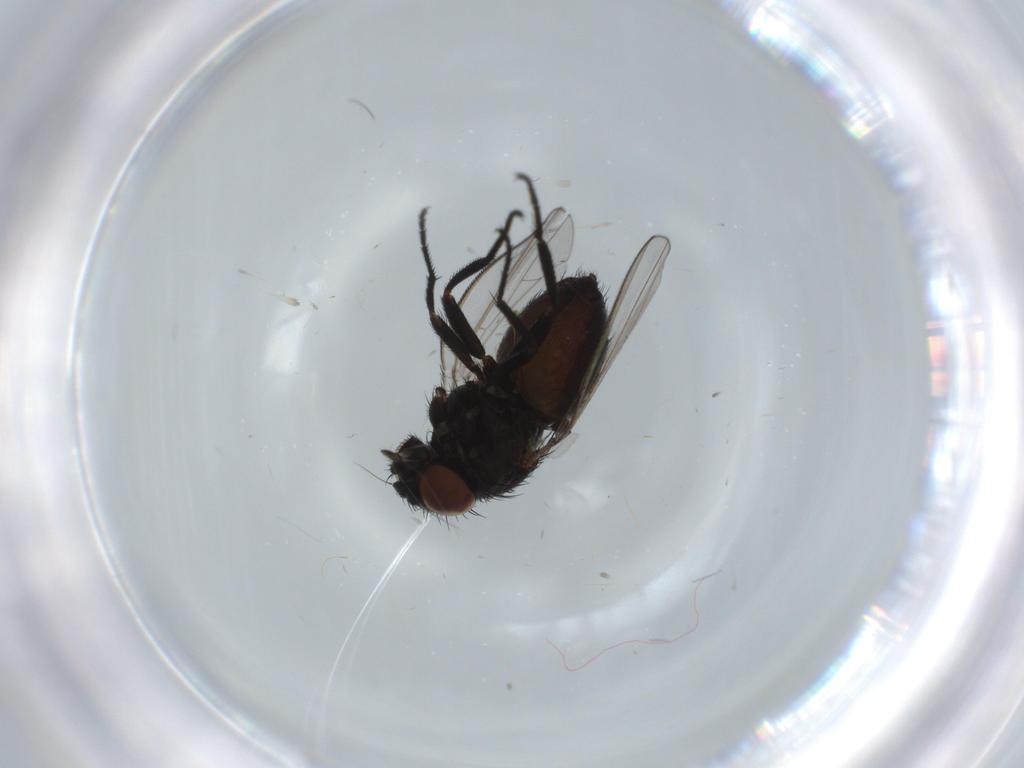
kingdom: Animalia
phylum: Arthropoda
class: Insecta
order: Diptera
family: Milichiidae
